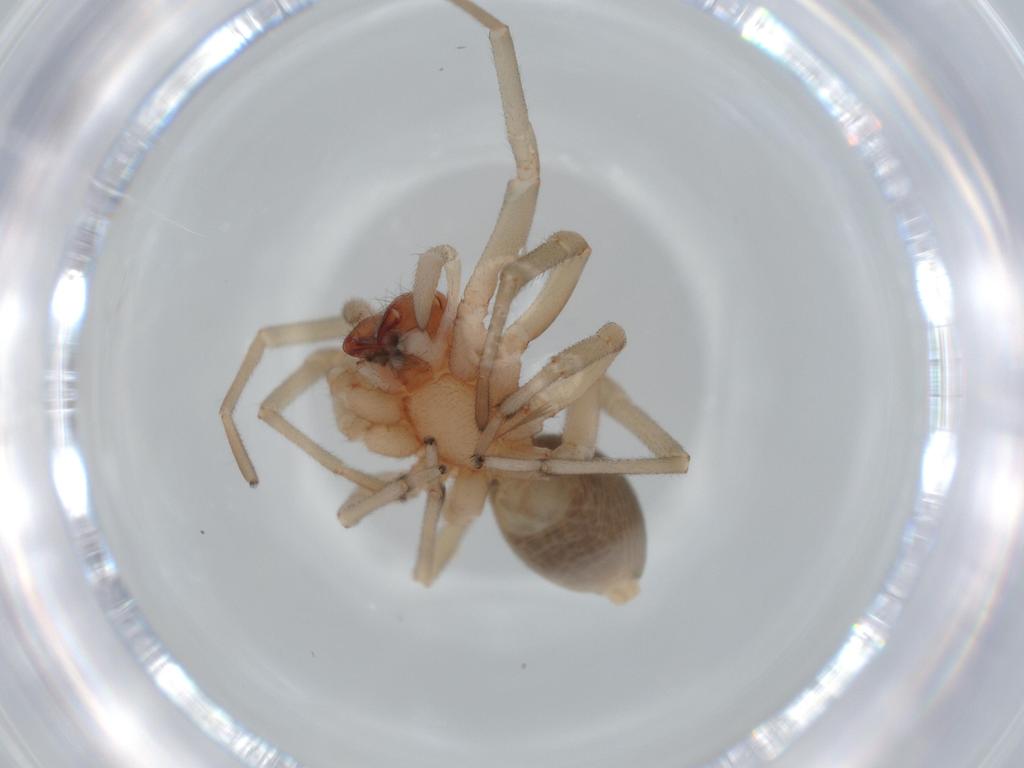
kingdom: Animalia
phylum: Arthropoda
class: Arachnida
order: Araneae
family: Trachelidae
